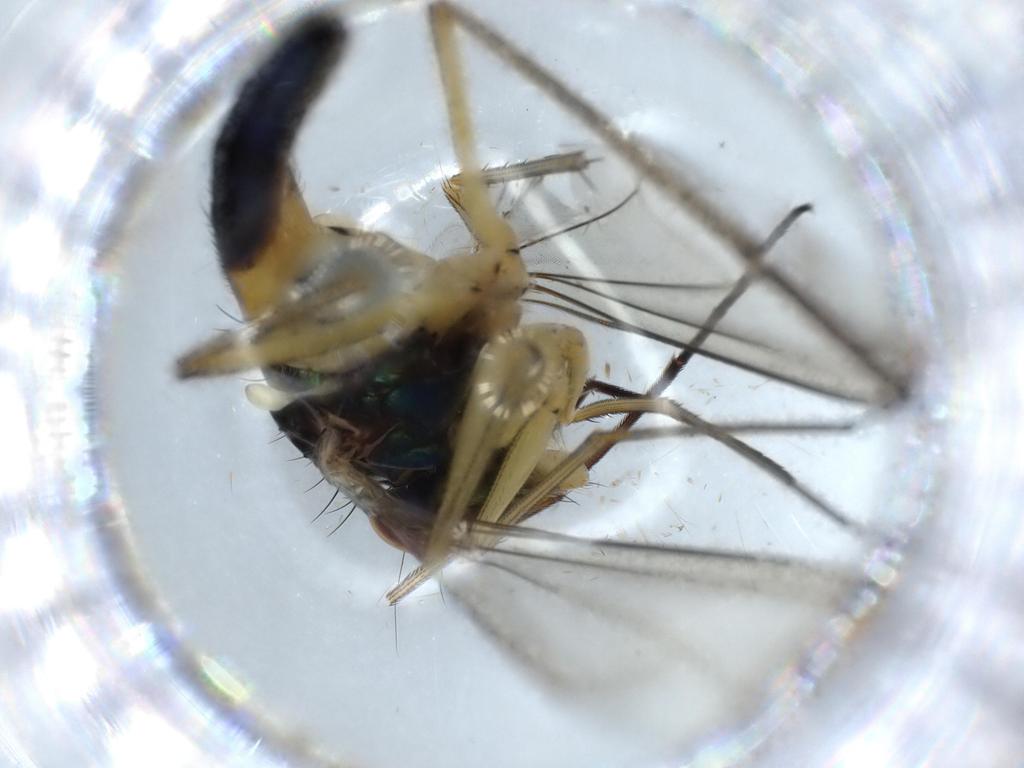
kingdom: Animalia
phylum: Arthropoda
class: Insecta
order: Diptera
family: Dolichopodidae
